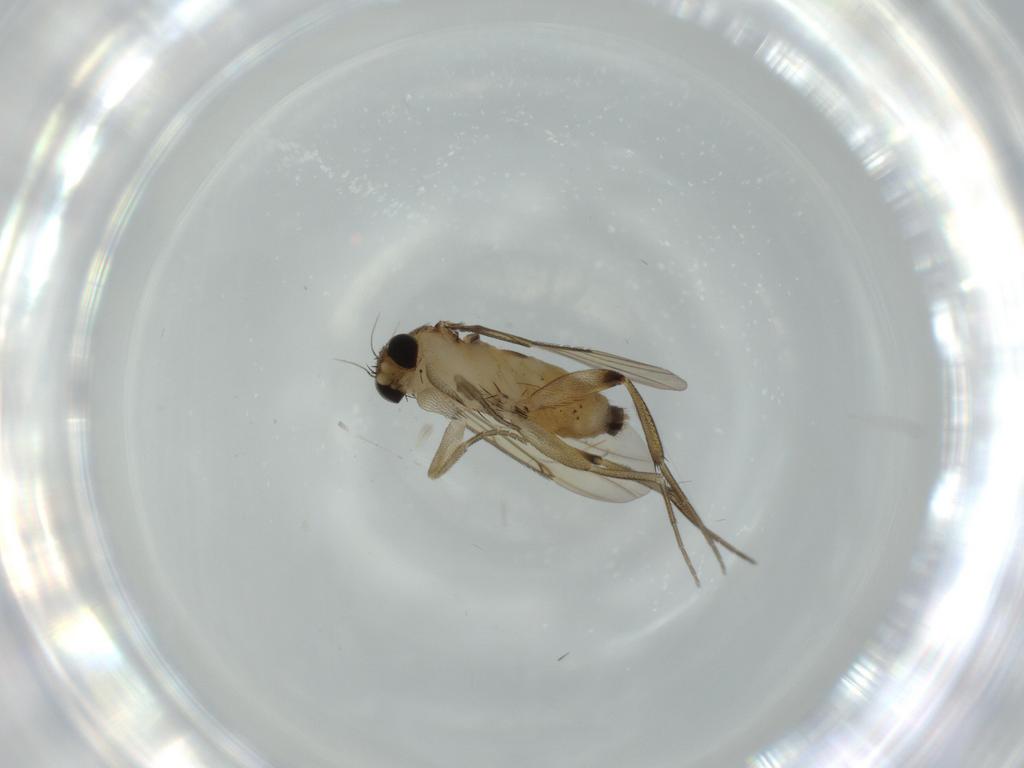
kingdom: Animalia
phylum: Arthropoda
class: Insecta
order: Diptera
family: Phoridae
